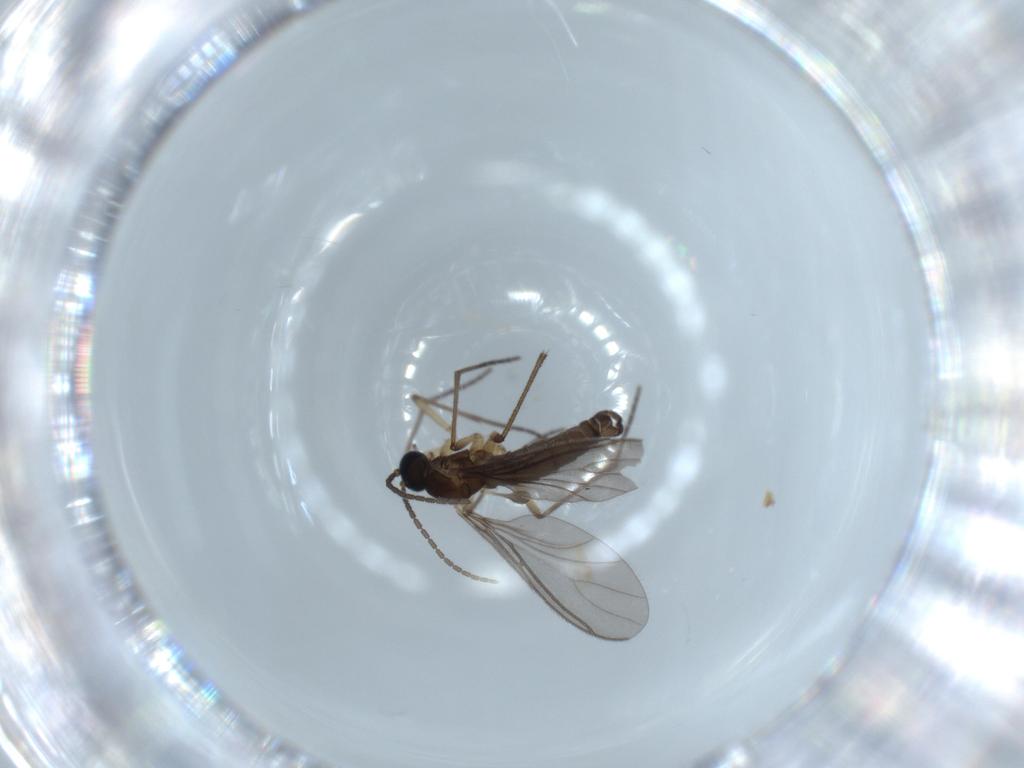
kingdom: Animalia
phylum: Arthropoda
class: Insecta
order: Diptera
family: Sciaridae
